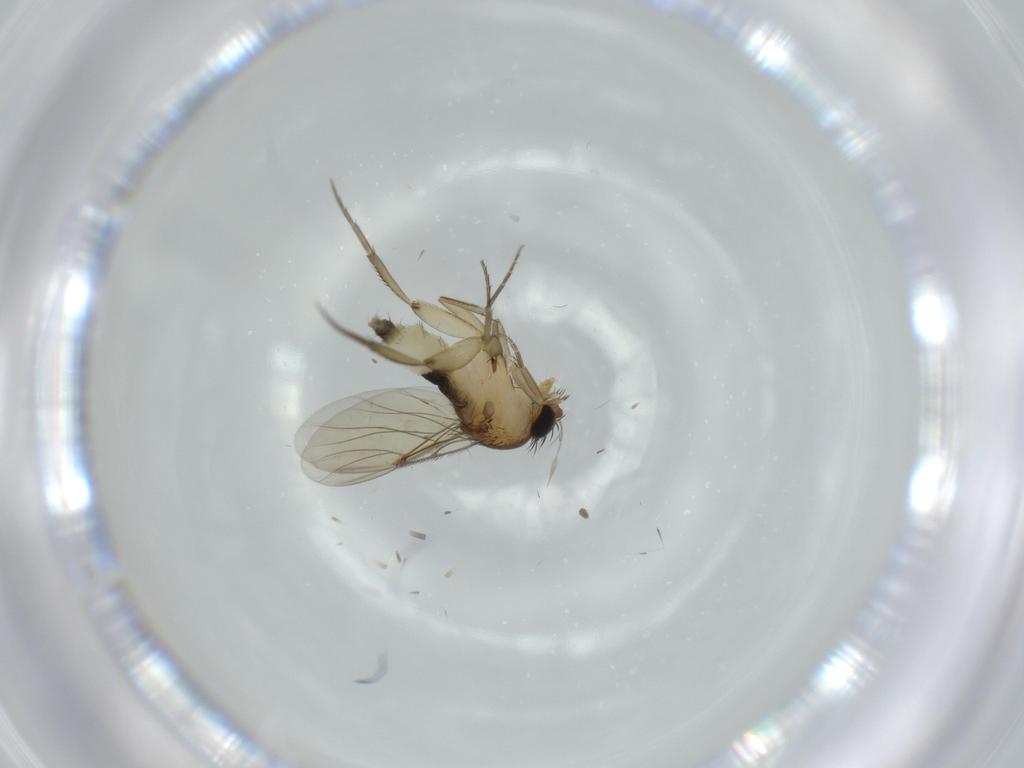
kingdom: Animalia
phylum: Arthropoda
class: Insecta
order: Diptera
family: Phoridae
